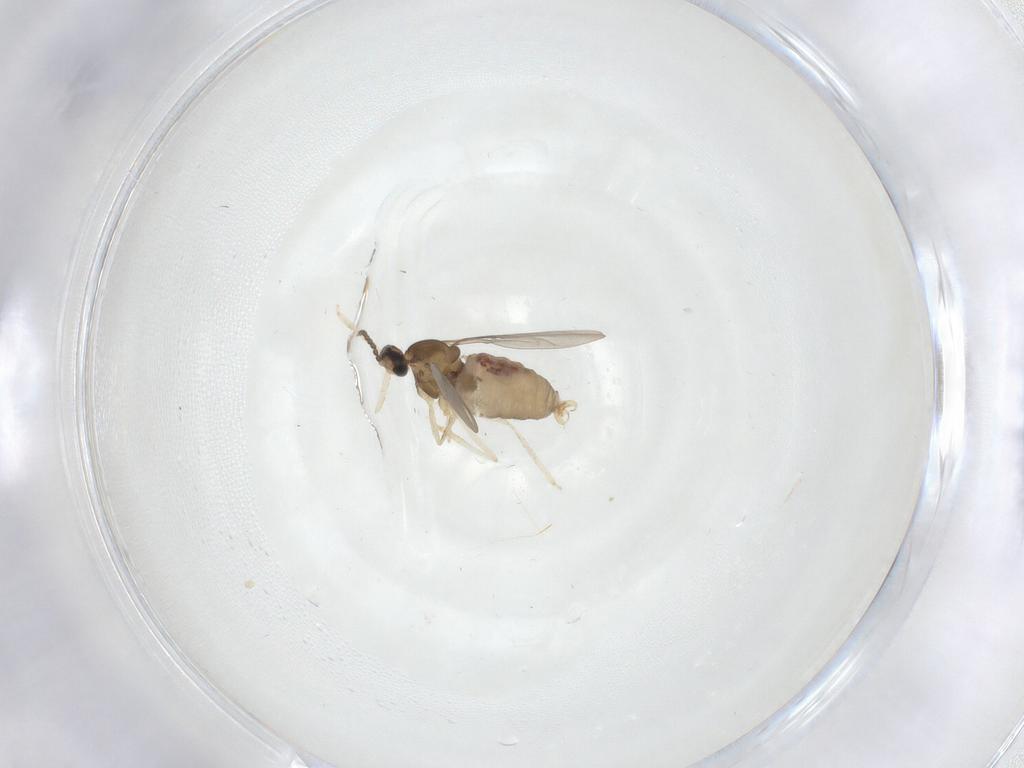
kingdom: Animalia
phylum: Arthropoda
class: Insecta
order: Diptera
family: Cecidomyiidae
